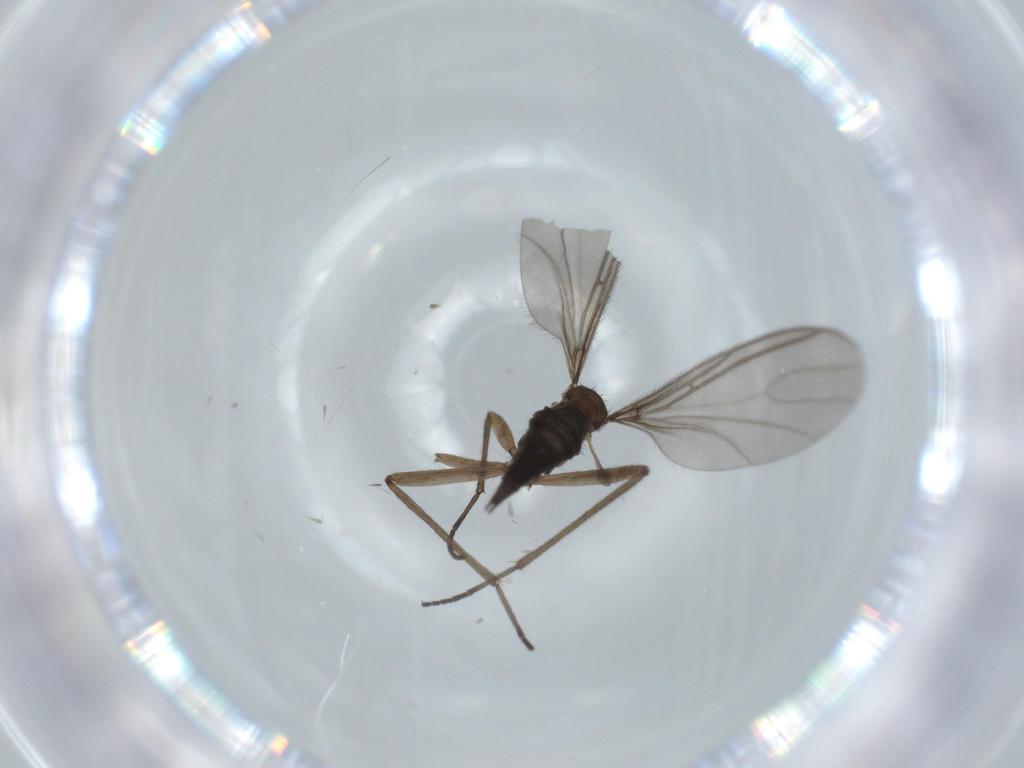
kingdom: Animalia
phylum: Arthropoda
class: Insecta
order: Diptera
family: Sciaridae
